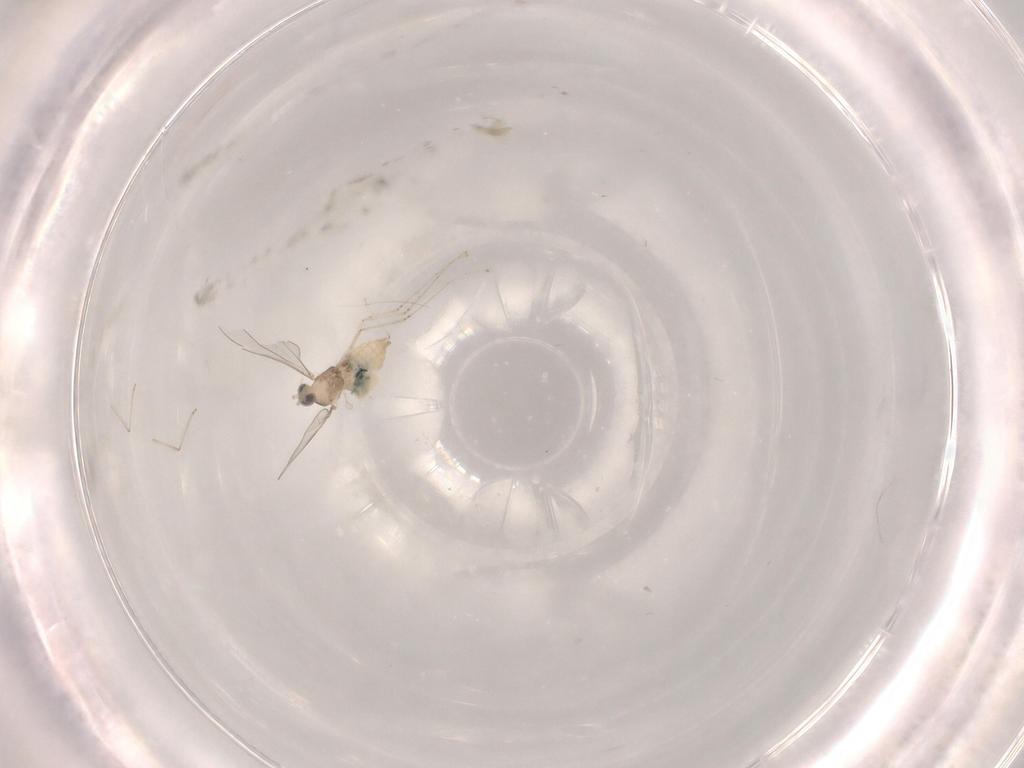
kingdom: Animalia
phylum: Arthropoda
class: Insecta
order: Diptera
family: Cecidomyiidae
